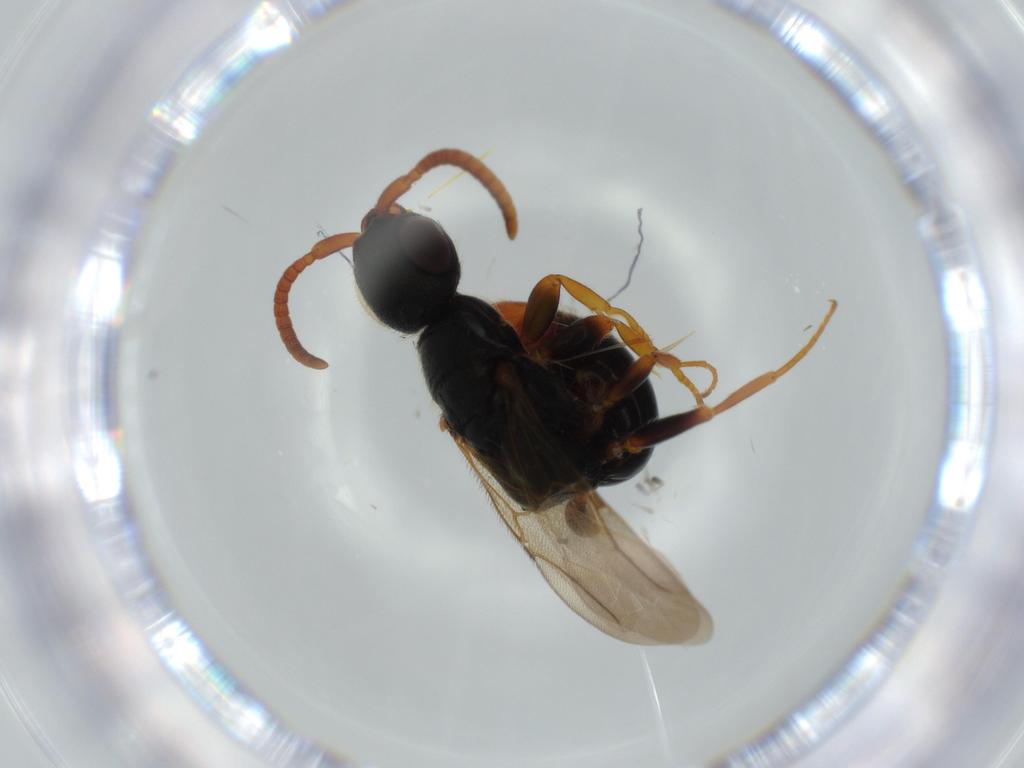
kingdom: Animalia
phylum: Arthropoda
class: Insecta
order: Hymenoptera
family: Bethylidae
